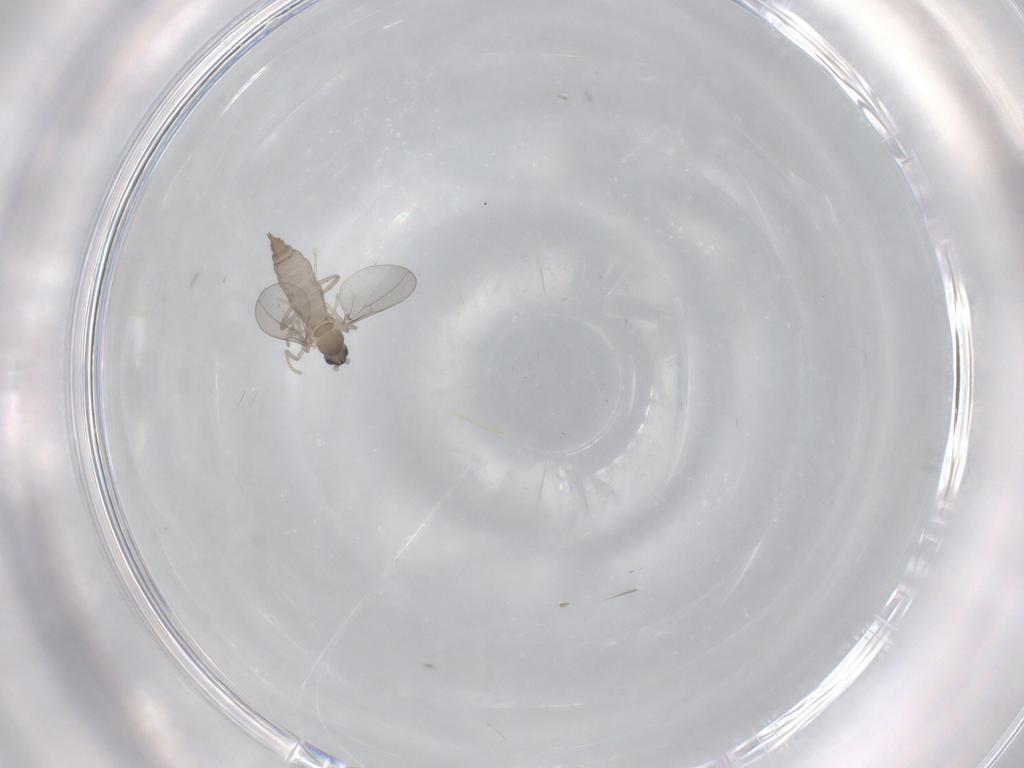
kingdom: Animalia
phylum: Arthropoda
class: Insecta
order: Diptera
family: Cecidomyiidae
